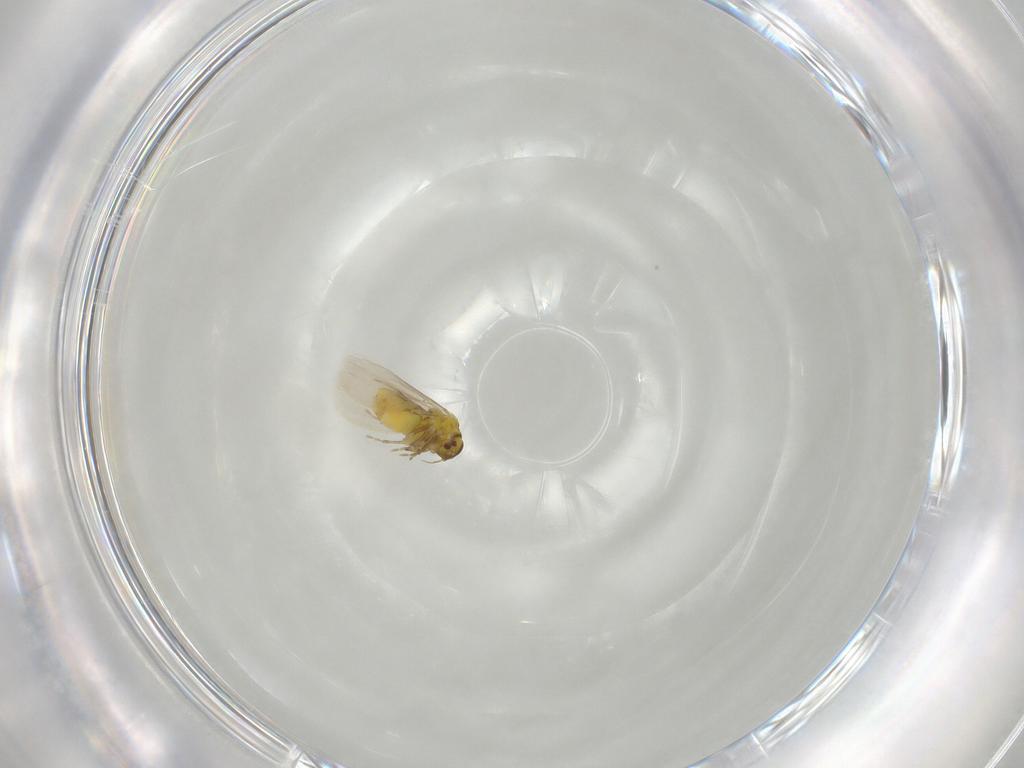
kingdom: Animalia
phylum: Arthropoda
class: Insecta
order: Hemiptera
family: Aleyrodidae
